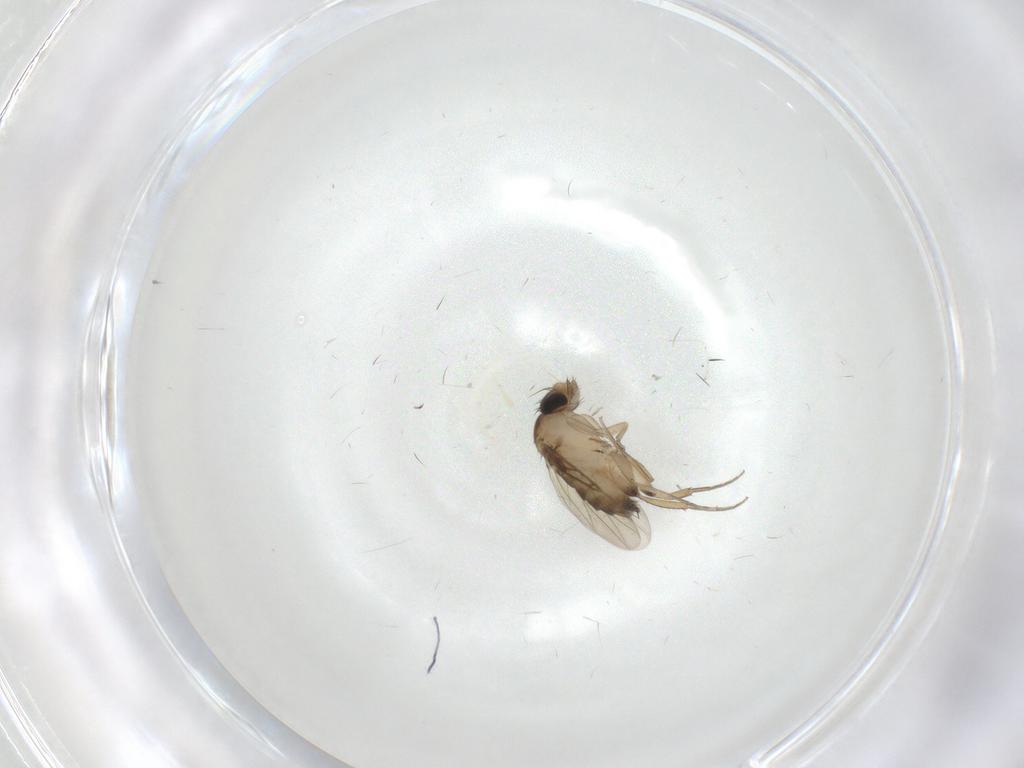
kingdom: Animalia
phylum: Arthropoda
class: Insecta
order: Diptera
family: Phoridae
